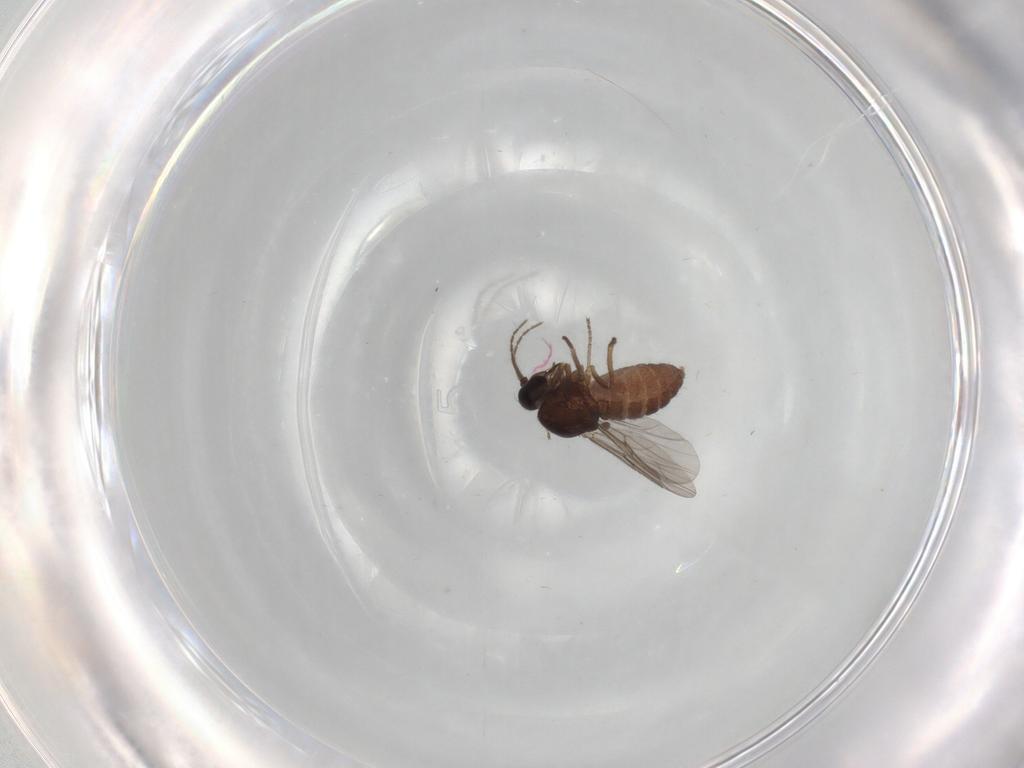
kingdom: Animalia
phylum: Arthropoda
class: Insecta
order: Diptera
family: Ceratopogonidae
